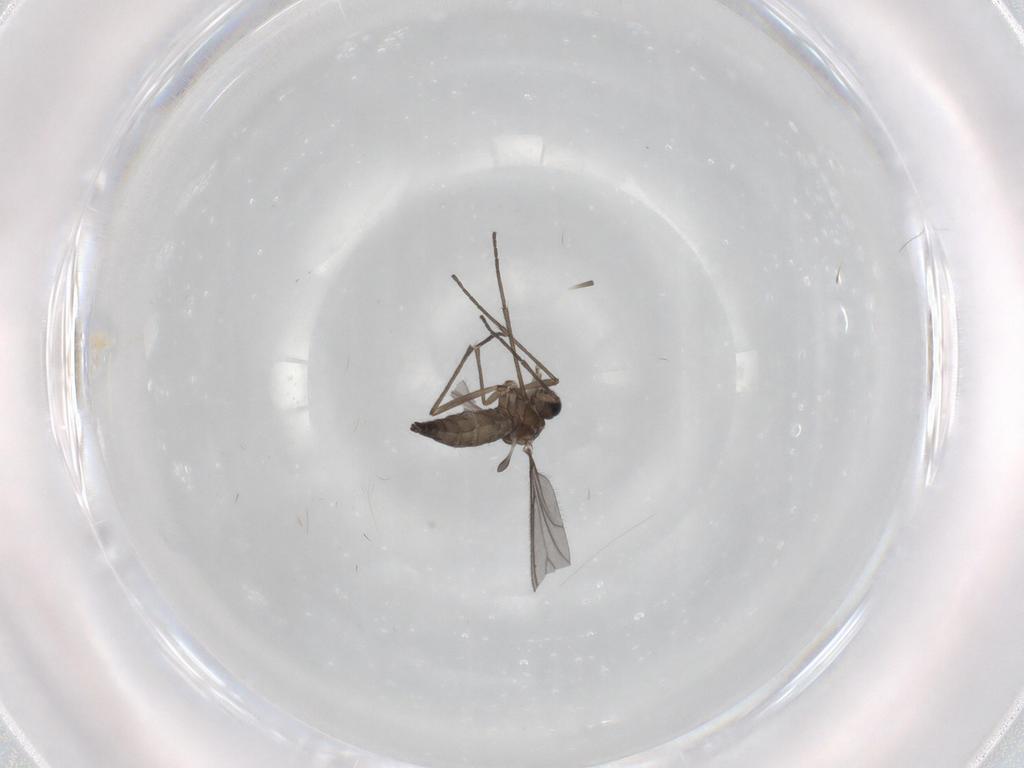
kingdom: Animalia
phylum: Arthropoda
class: Insecta
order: Diptera
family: Sciaridae
